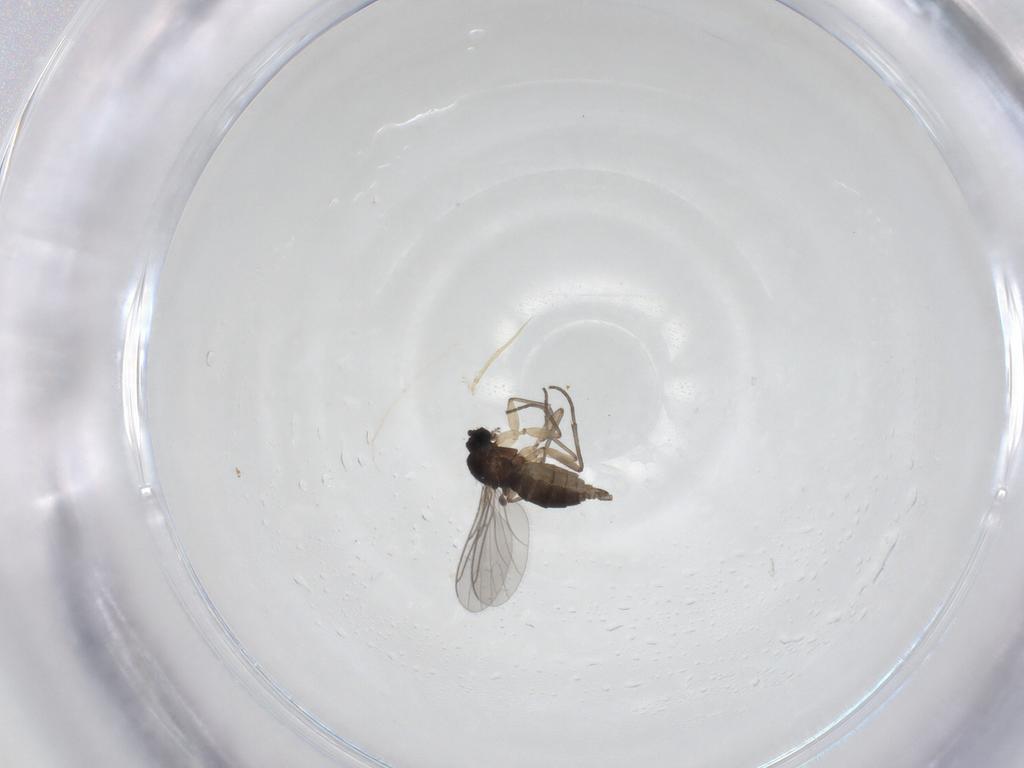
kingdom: Animalia
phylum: Arthropoda
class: Insecta
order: Diptera
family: Sciaridae
